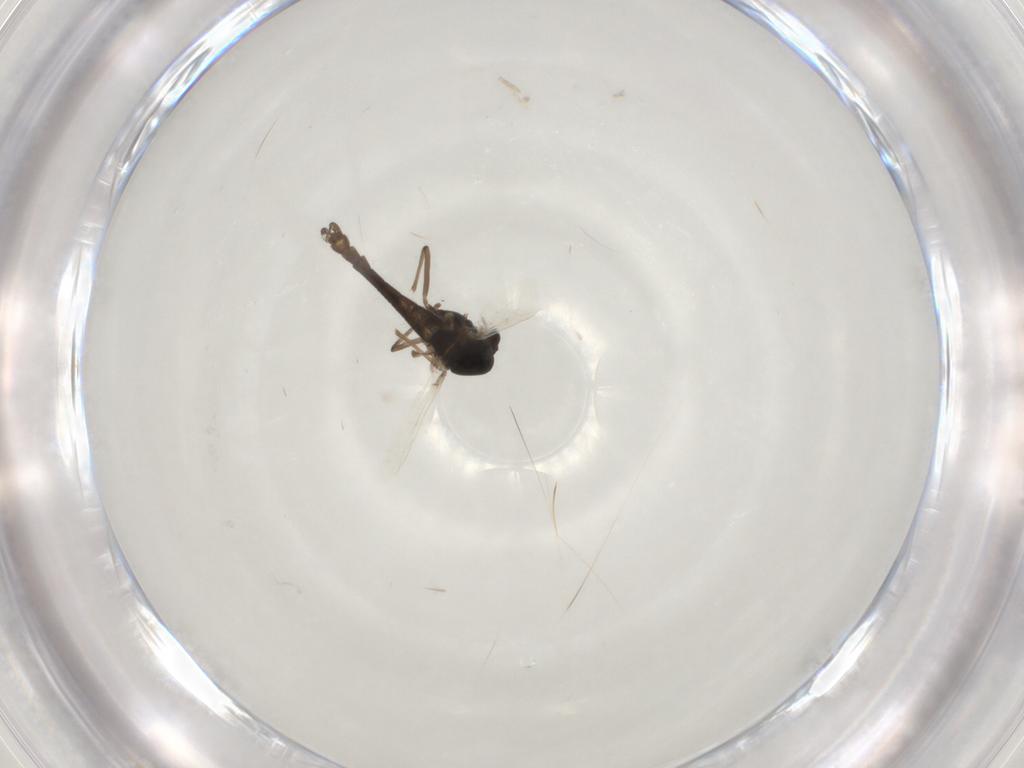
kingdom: Animalia
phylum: Arthropoda
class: Insecta
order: Diptera
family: Chironomidae
